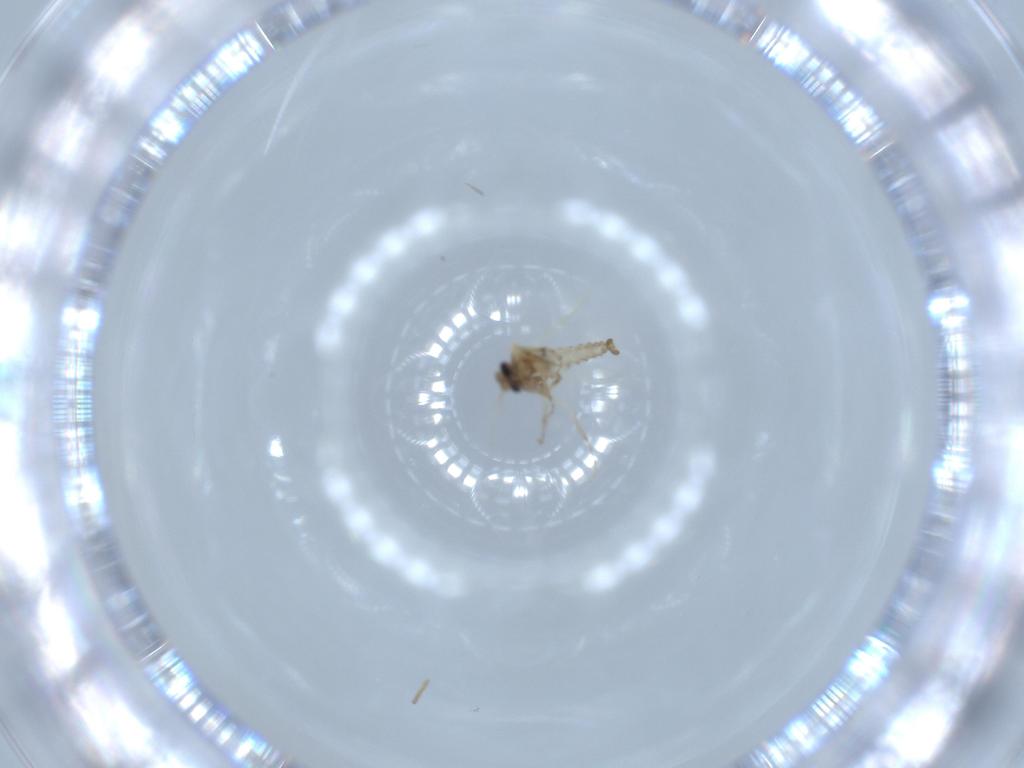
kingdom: Animalia
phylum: Arthropoda
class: Insecta
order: Diptera
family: Ceratopogonidae
